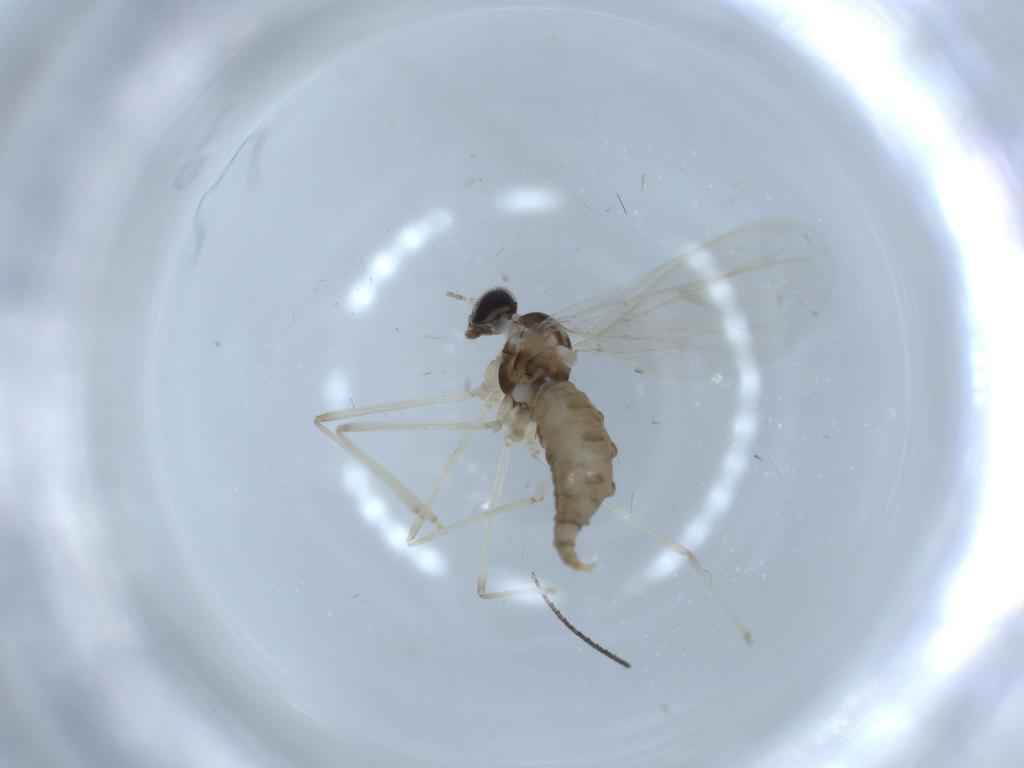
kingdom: Animalia
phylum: Arthropoda
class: Insecta
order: Diptera
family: Cecidomyiidae
